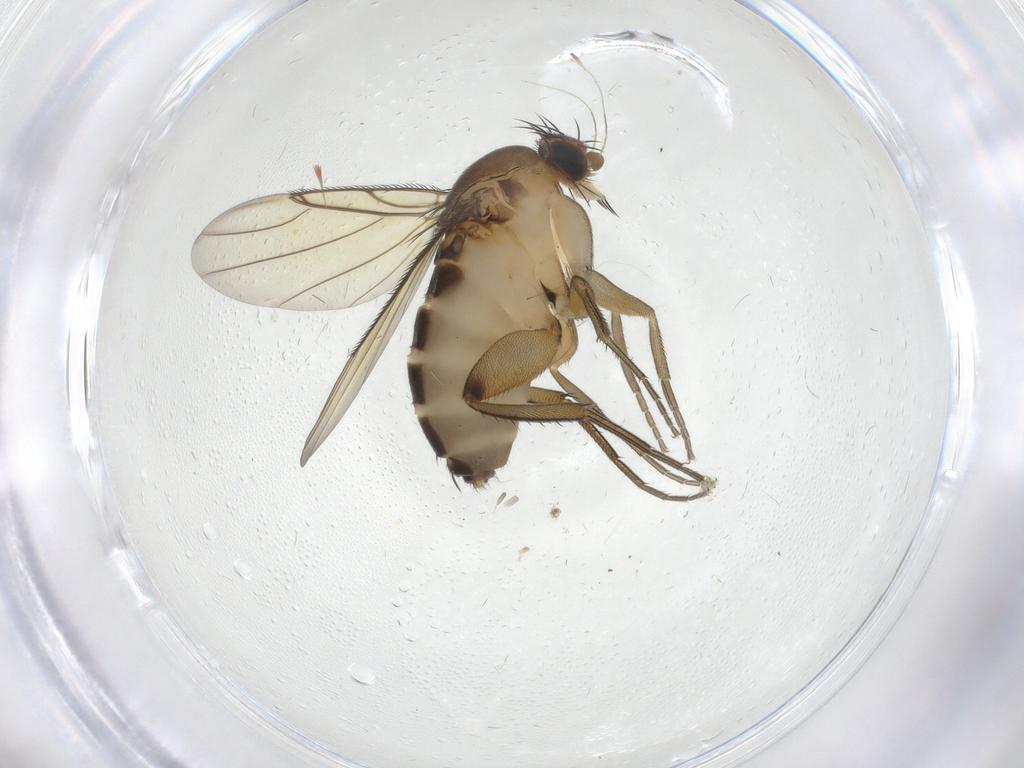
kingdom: Animalia
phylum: Arthropoda
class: Insecta
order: Diptera
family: Phoridae
